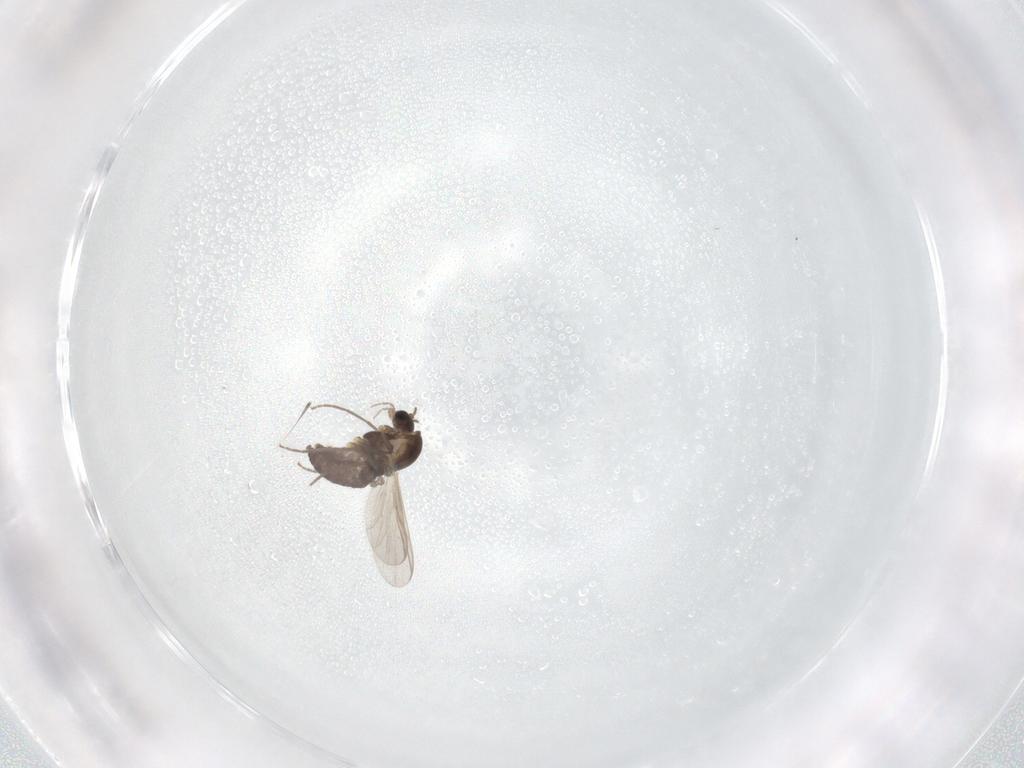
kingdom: Animalia
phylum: Arthropoda
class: Insecta
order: Diptera
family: Chironomidae
